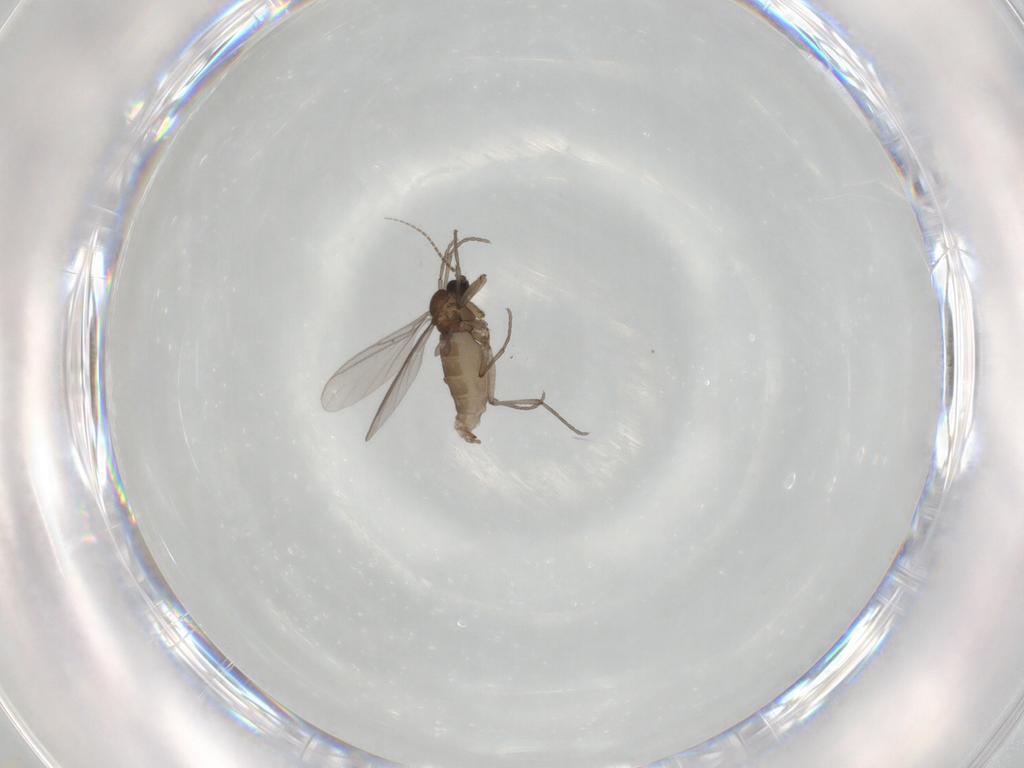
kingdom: Animalia
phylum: Arthropoda
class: Insecta
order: Diptera
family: Sciaridae
